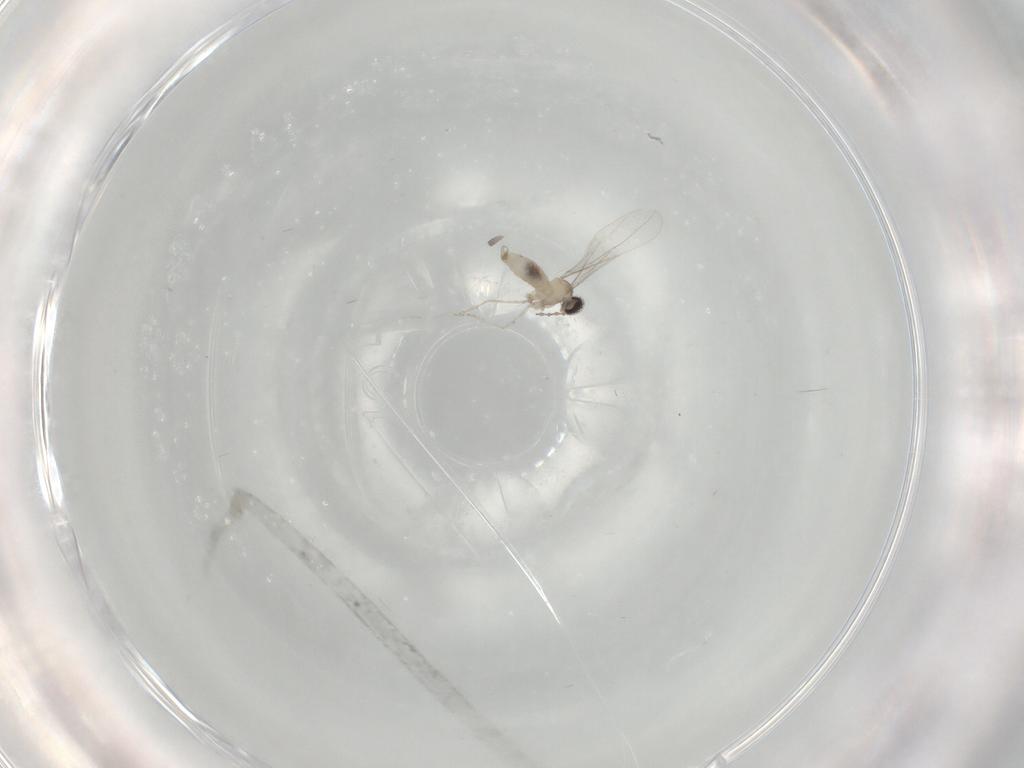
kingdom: Animalia
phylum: Arthropoda
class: Insecta
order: Diptera
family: Cecidomyiidae
